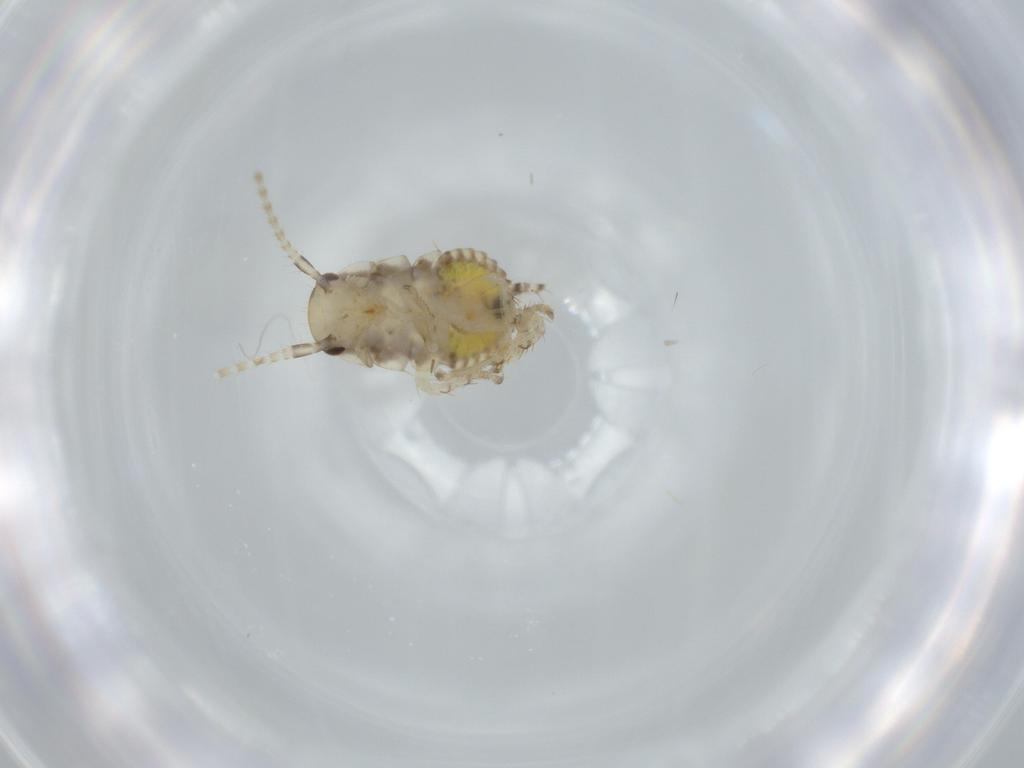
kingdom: Animalia
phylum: Arthropoda
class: Insecta
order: Blattodea
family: Ectobiidae
